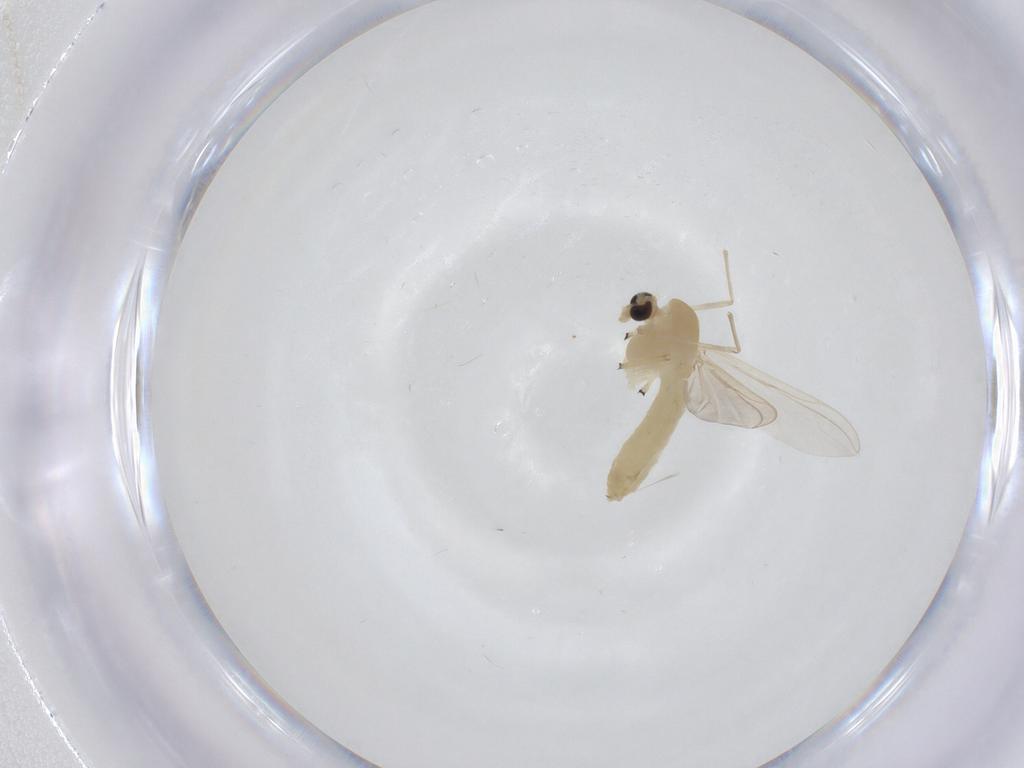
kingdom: Animalia
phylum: Arthropoda
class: Insecta
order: Diptera
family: Chironomidae
